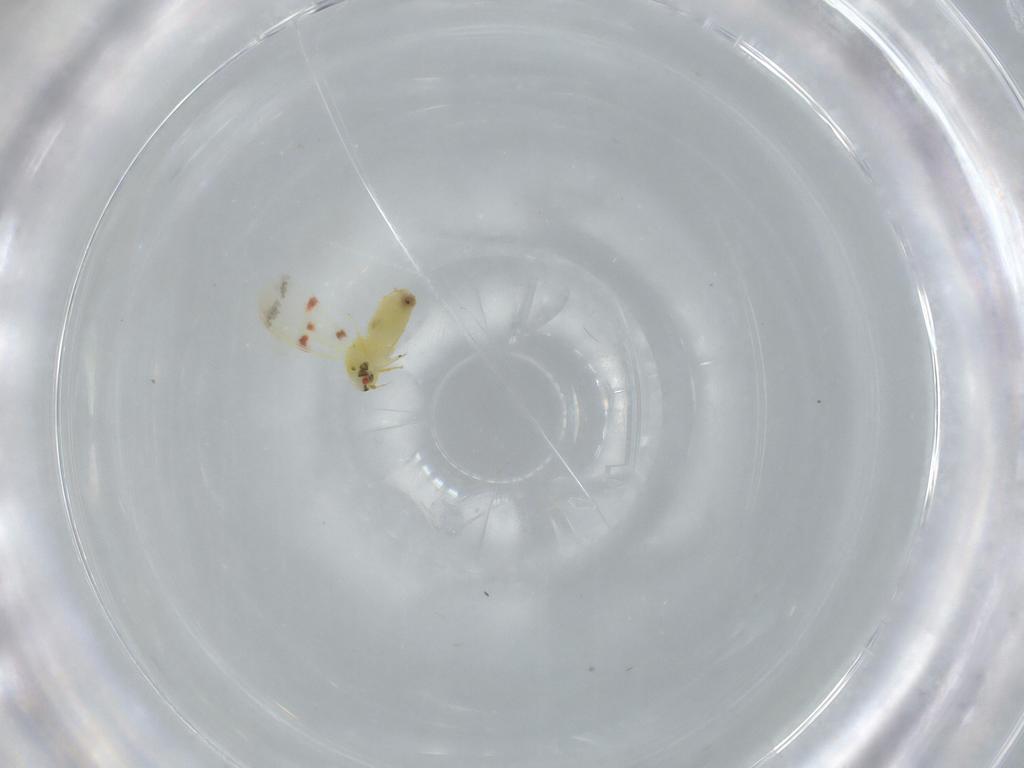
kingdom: Animalia
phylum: Arthropoda
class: Insecta
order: Hemiptera
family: Aleyrodidae
